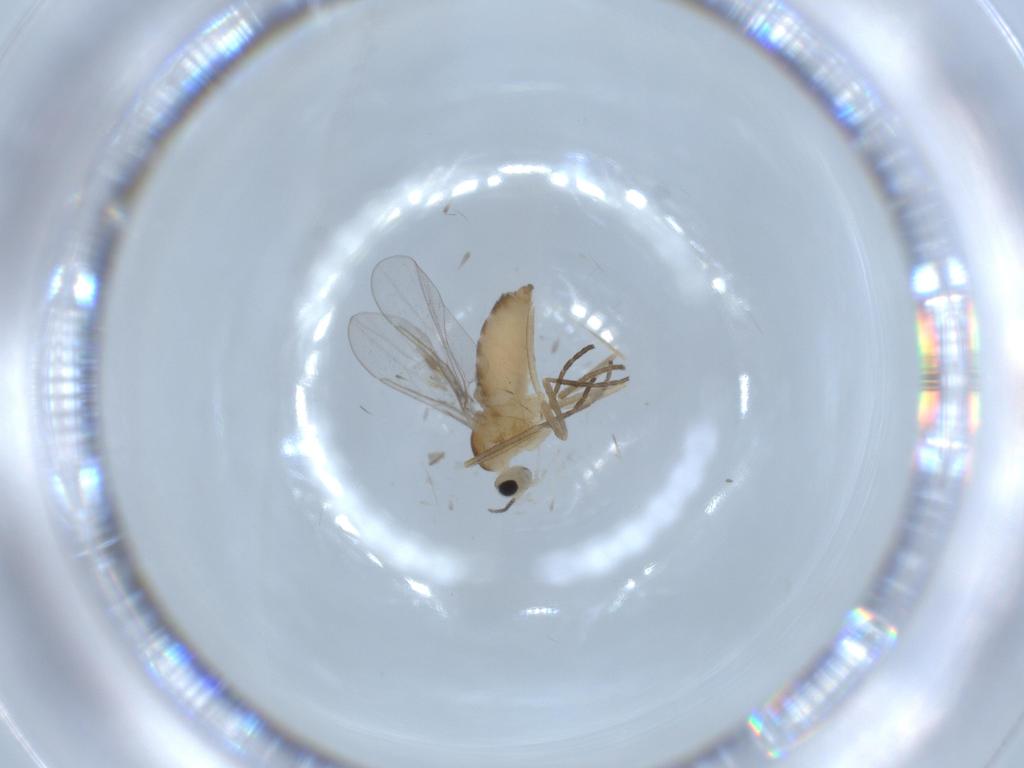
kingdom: Animalia
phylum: Arthropoda
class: Insecta
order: Diptera
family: Cecidomyiidae
